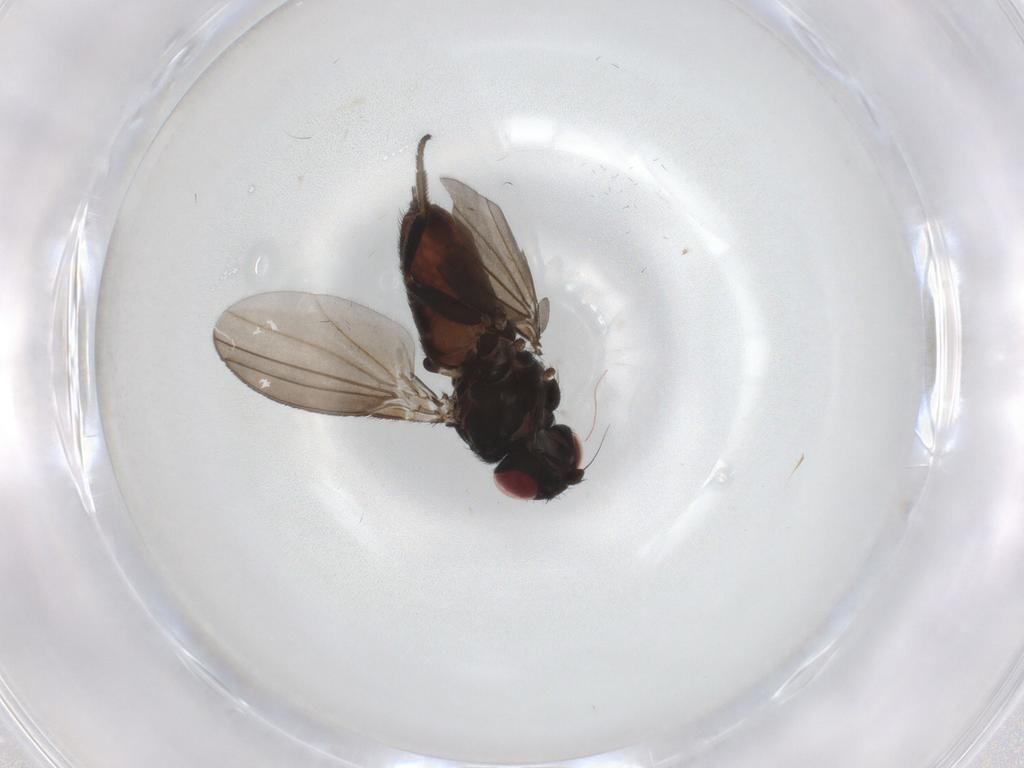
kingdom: Animalia
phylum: Arthropoda
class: Insecta
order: Diptera
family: Milichiidae
